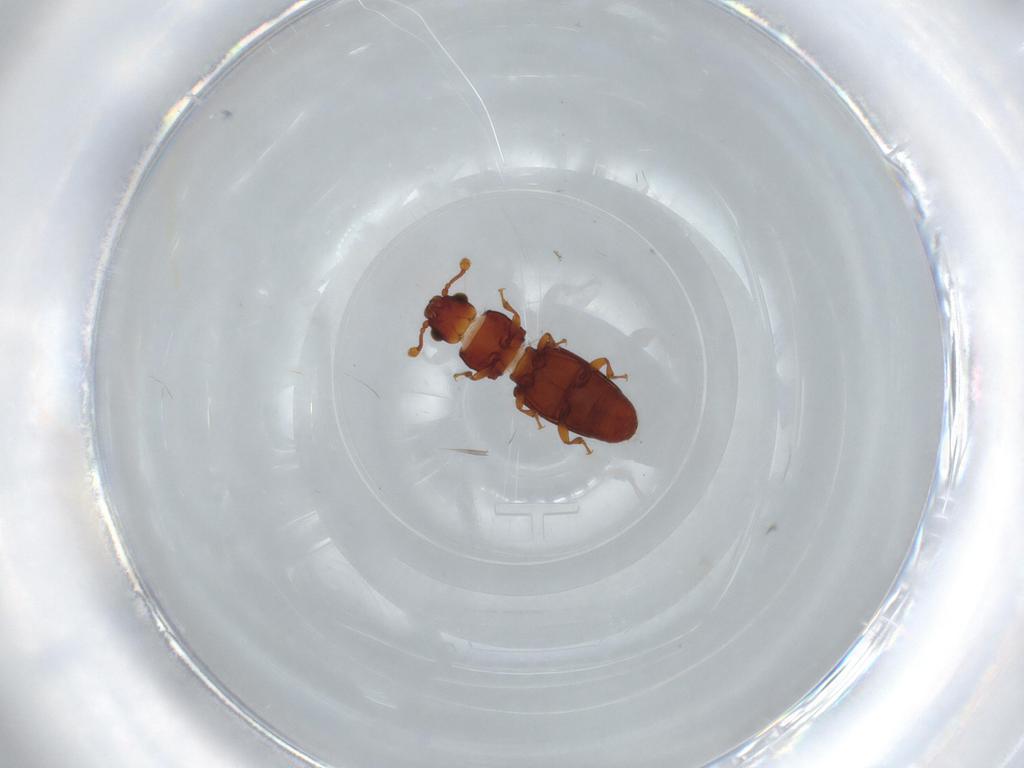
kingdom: Animalia
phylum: Arthropoda
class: Insecta
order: Coleoptera
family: Monotomidae
